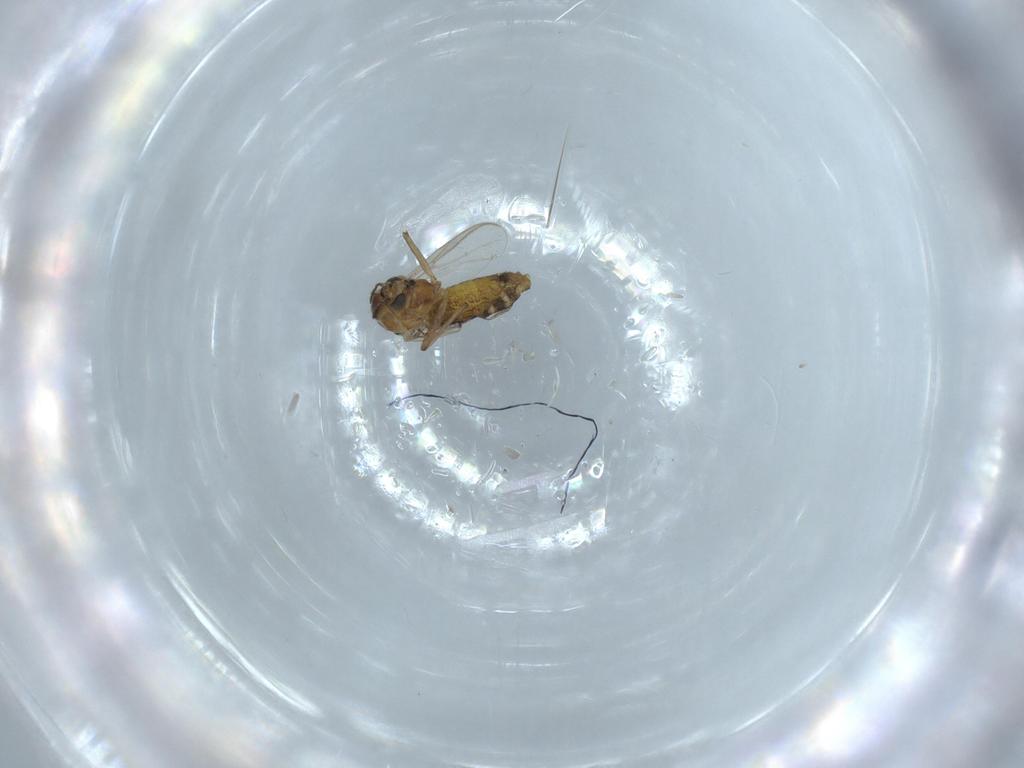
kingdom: Animalia
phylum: Arthropoda
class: Insecta
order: Diptera
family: Chironomidae
